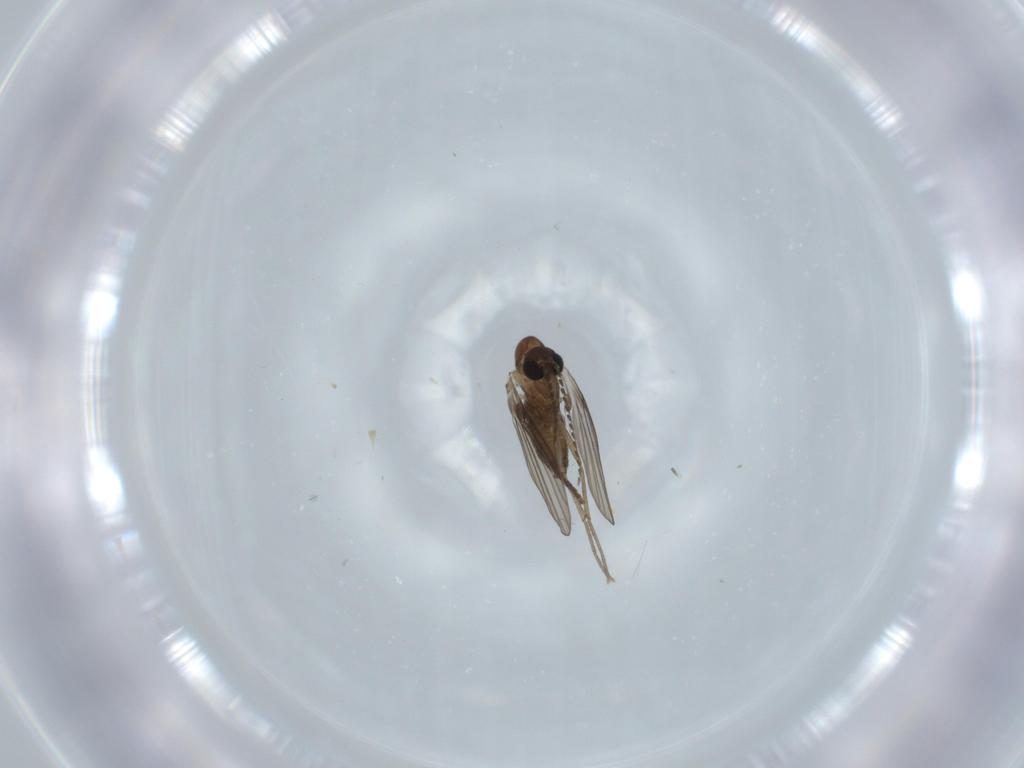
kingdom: Animalia
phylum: Arthropoda
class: Insecta
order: Diptera
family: Psychodidae
